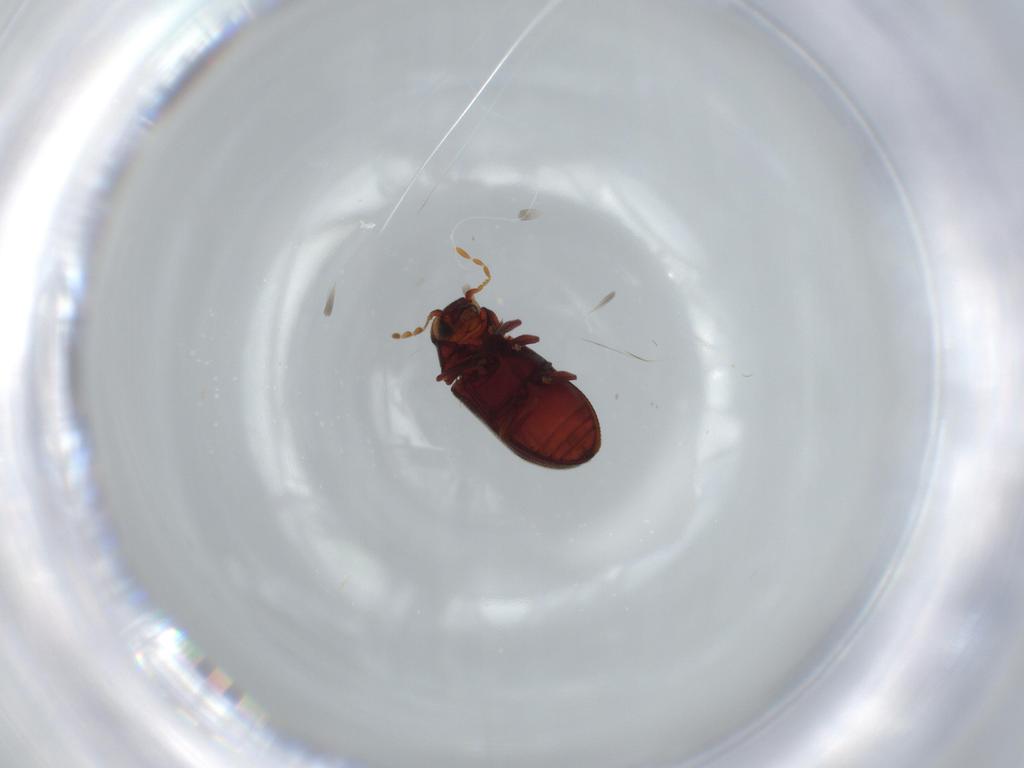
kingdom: Animalia
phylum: Arthropoda
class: Insecta
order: Coleoptera
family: Anobiidae
